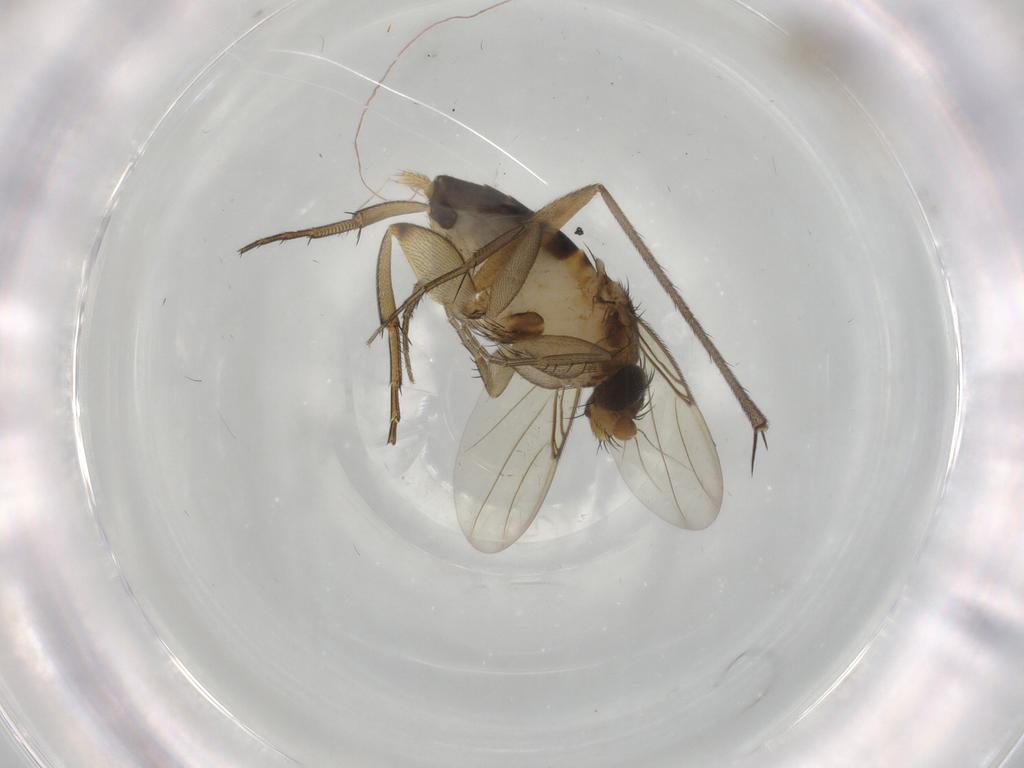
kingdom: Animalia
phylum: Arthropoda
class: Insecta
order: Diptera
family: Phoridae
